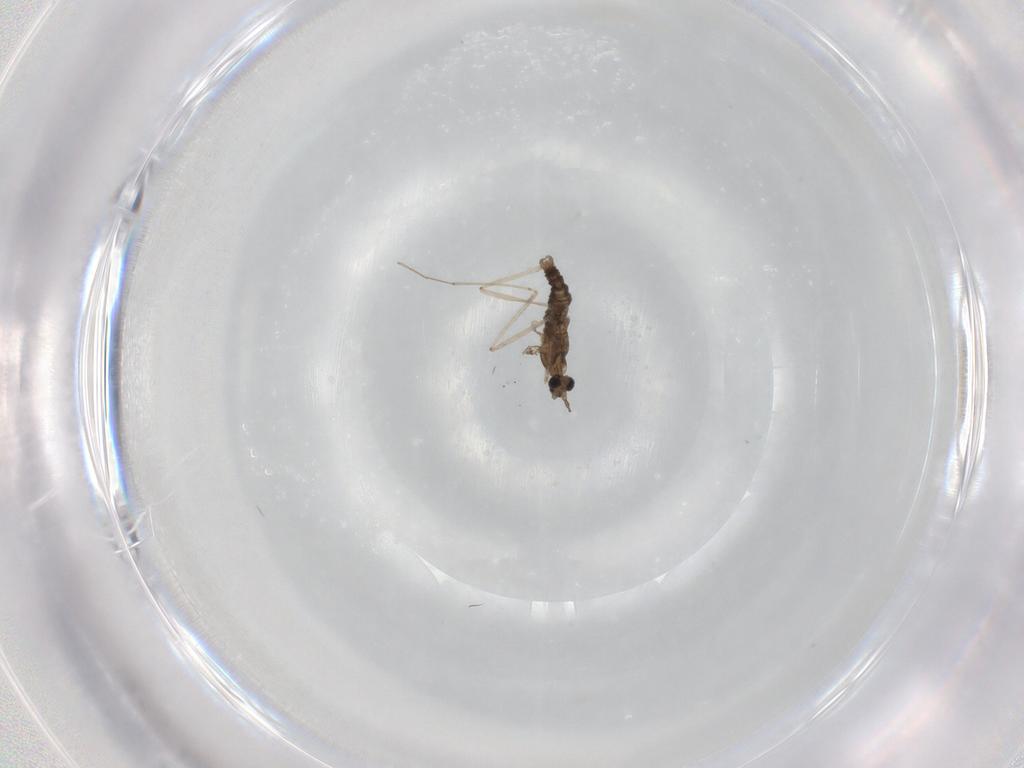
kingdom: Animalia
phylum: Arthropoda
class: Insecta
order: Diptera
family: Cecidomyiidae
